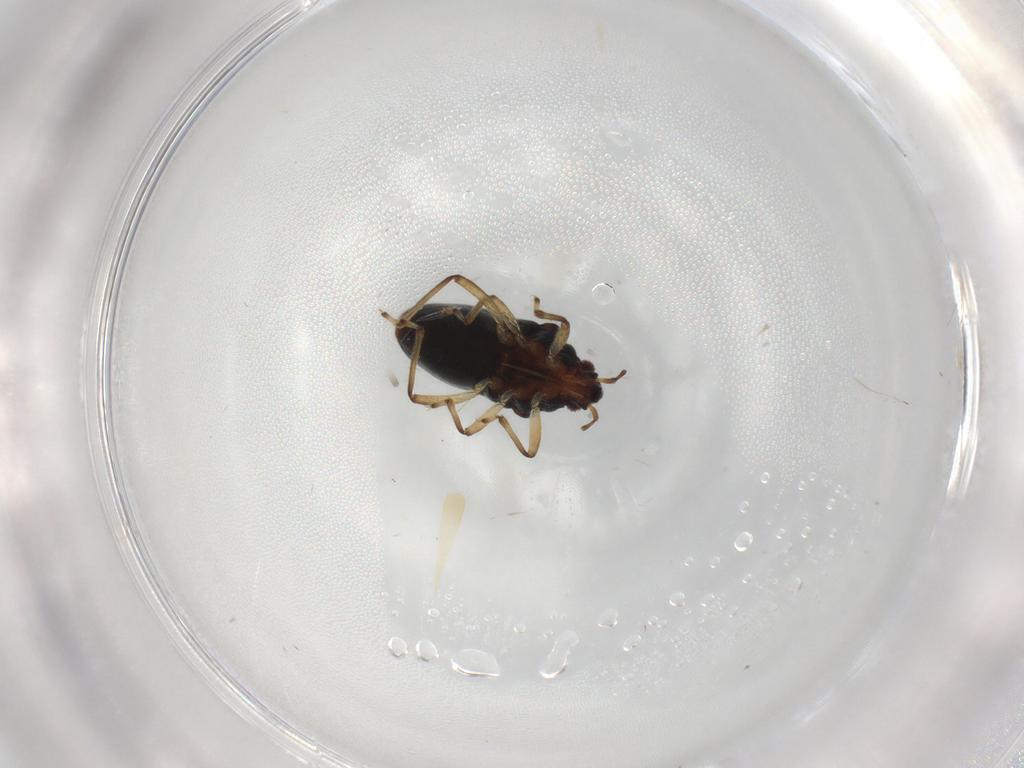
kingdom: Animalia
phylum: Arthropoda
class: Insecta
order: Hemiptera
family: Hebridae
